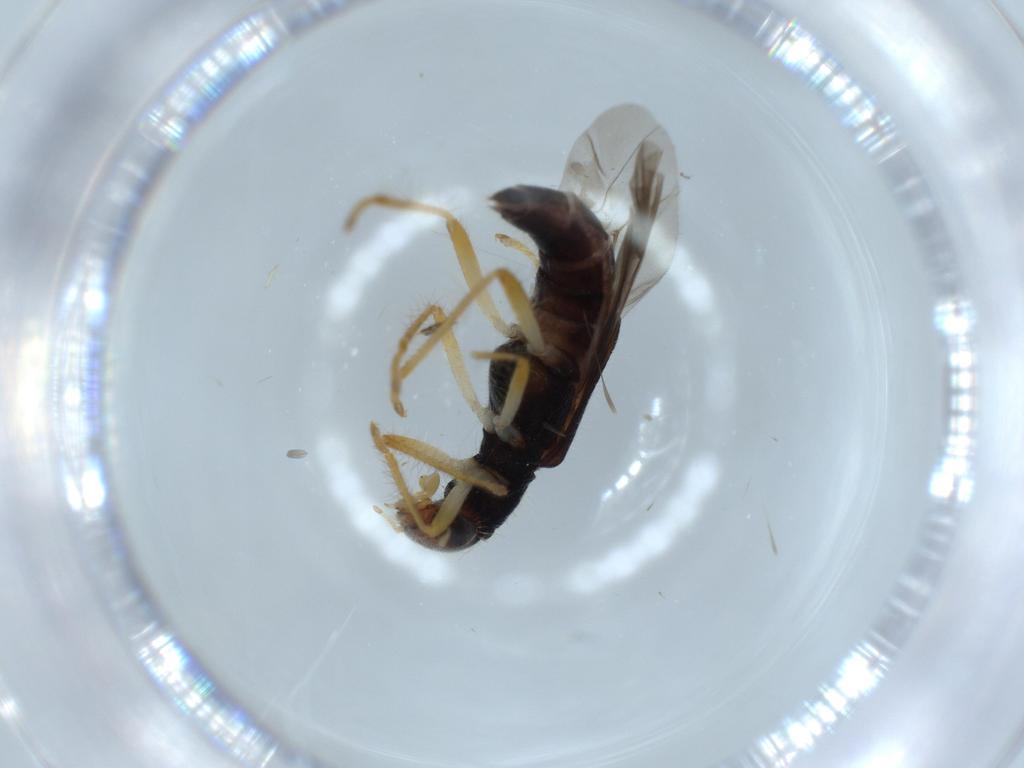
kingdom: Animalia
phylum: Arthropoda
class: Insecta
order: Coleoptera
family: Cleridae
